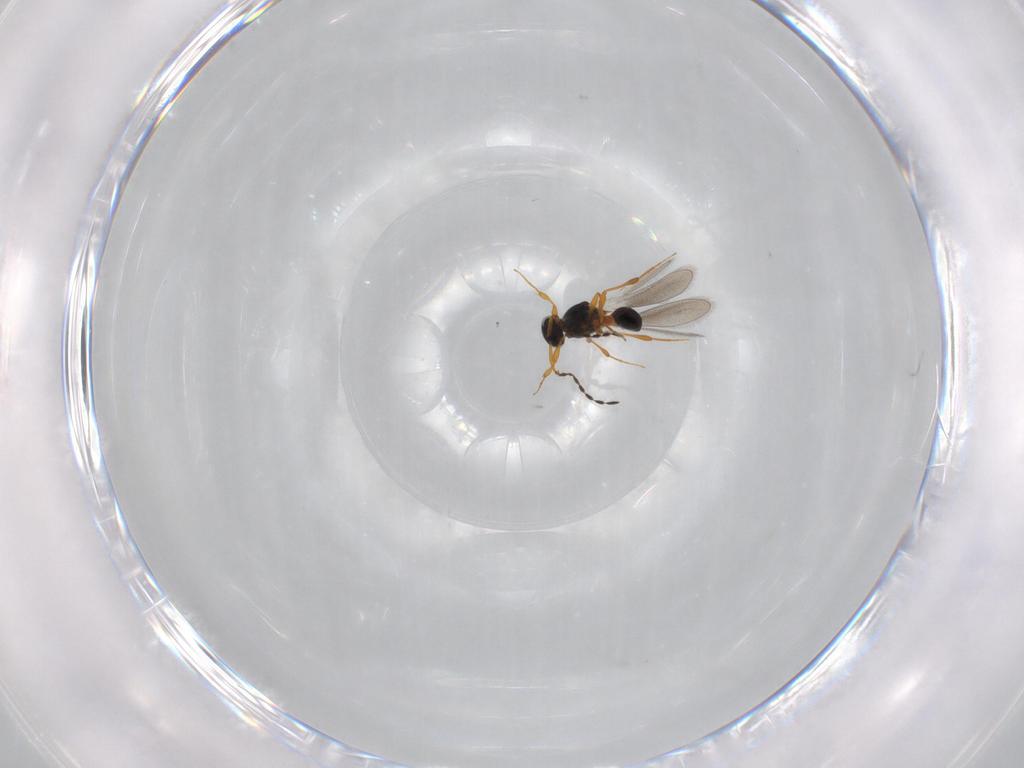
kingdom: Animalia
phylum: Arthropoda
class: Insecta
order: Hymenoptera
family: Platygastridae
